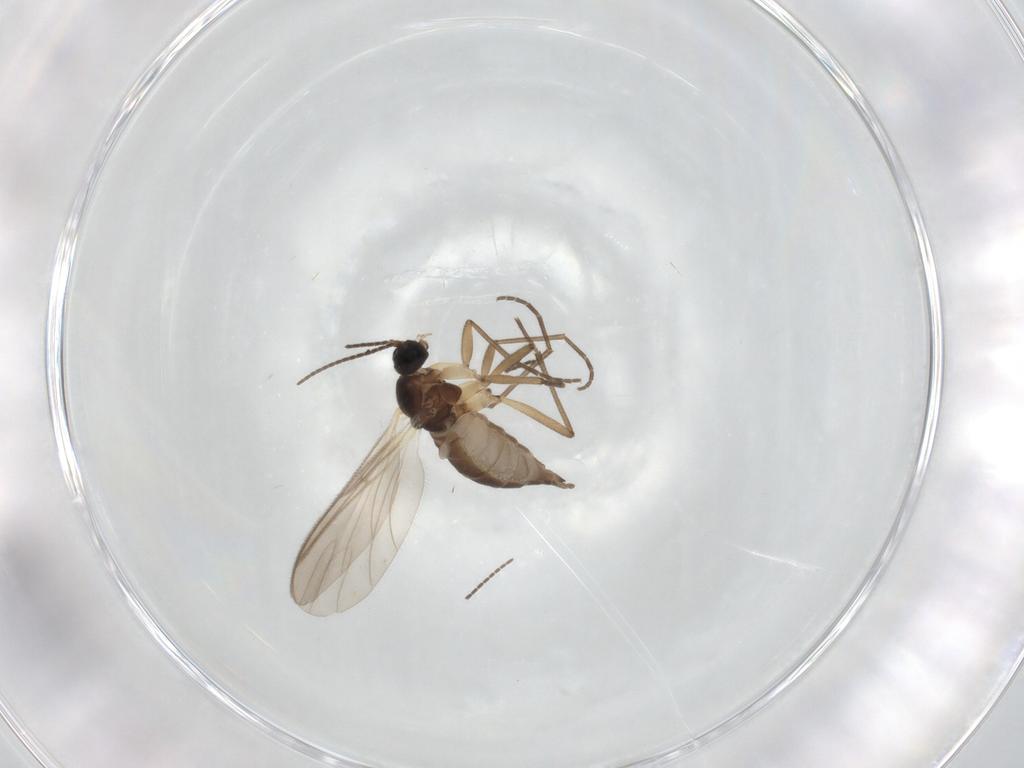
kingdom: Animalia
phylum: Arthropoda
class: Insecta
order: Diptera
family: Sciaridae
